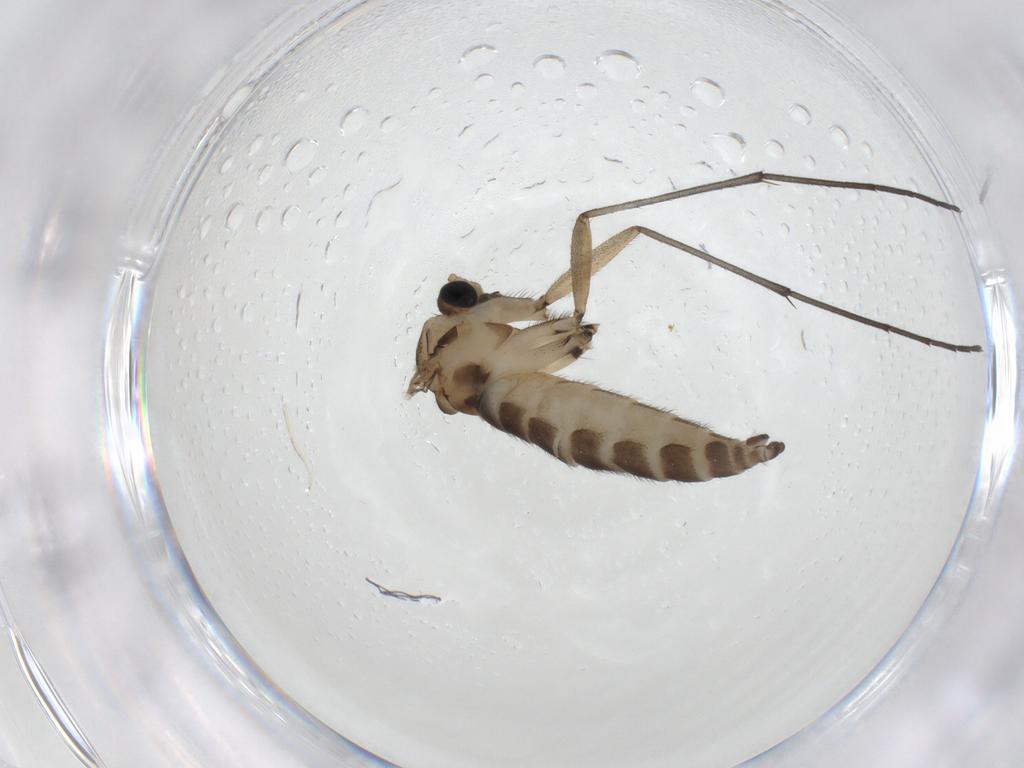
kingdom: Animalia
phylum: Arthropoda
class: Insecta
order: Diptera
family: Sciaridae
